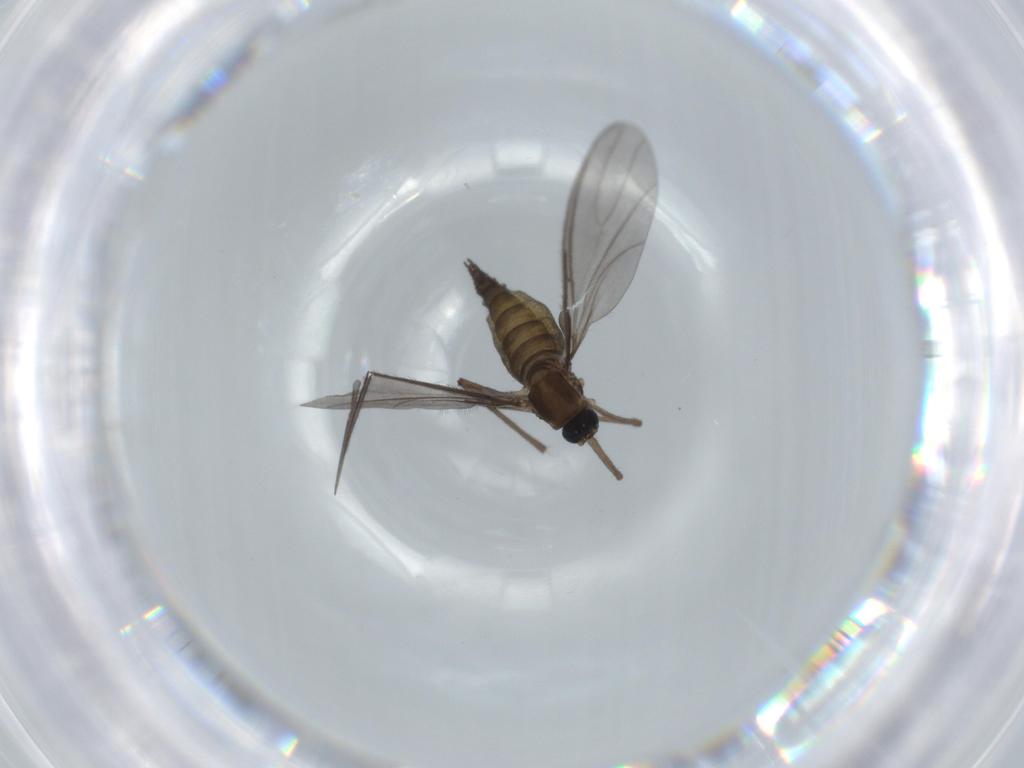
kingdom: Animalia
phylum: Arthropoda
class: Insecta
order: Diptera
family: Sciaridae
